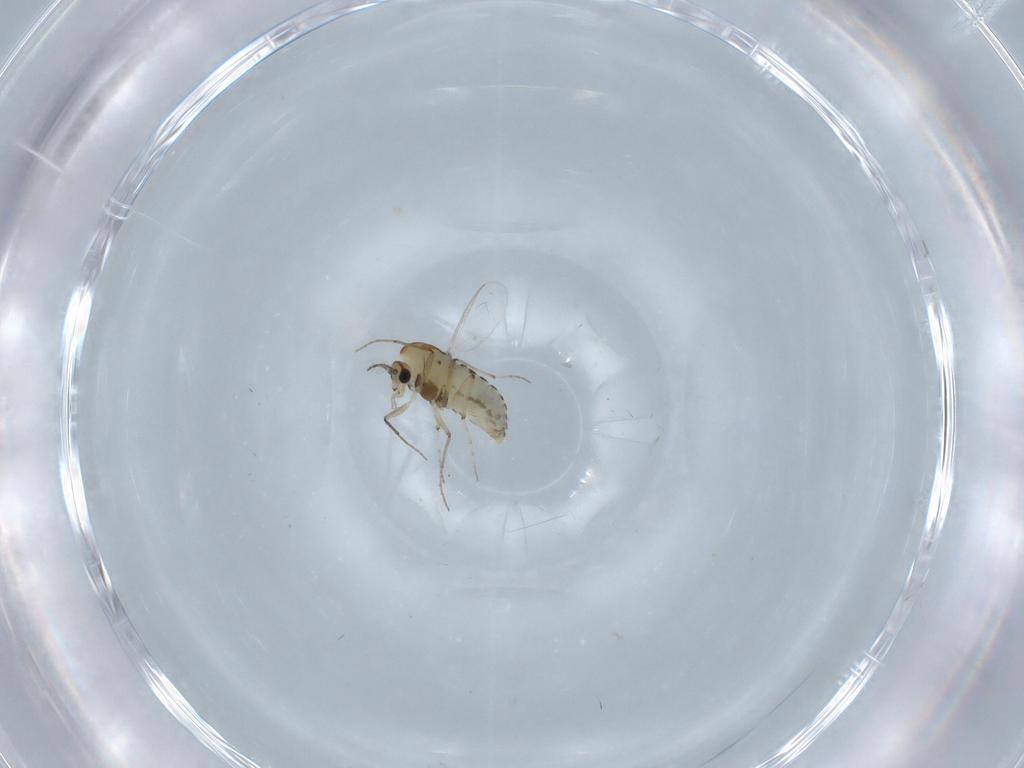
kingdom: Animalia
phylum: Arthropoda
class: Insecta
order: Diptera
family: Chironomidae
